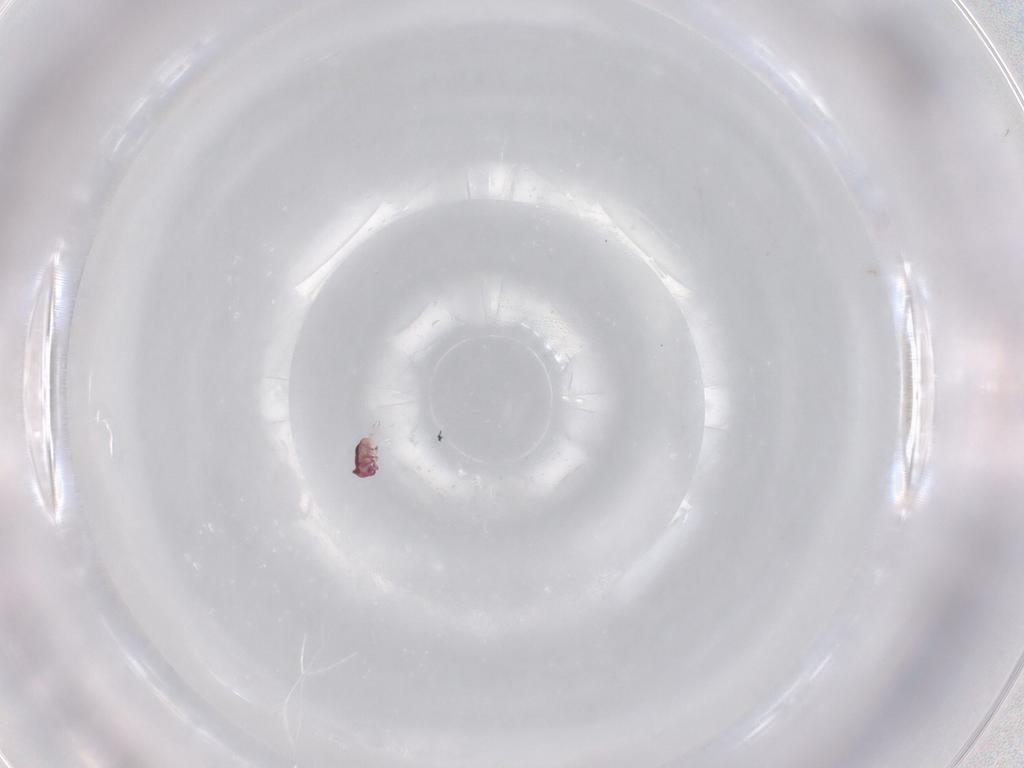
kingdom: Animalia
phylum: Arthropoda
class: Collembola
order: Symphypleona
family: Sminthurididae
